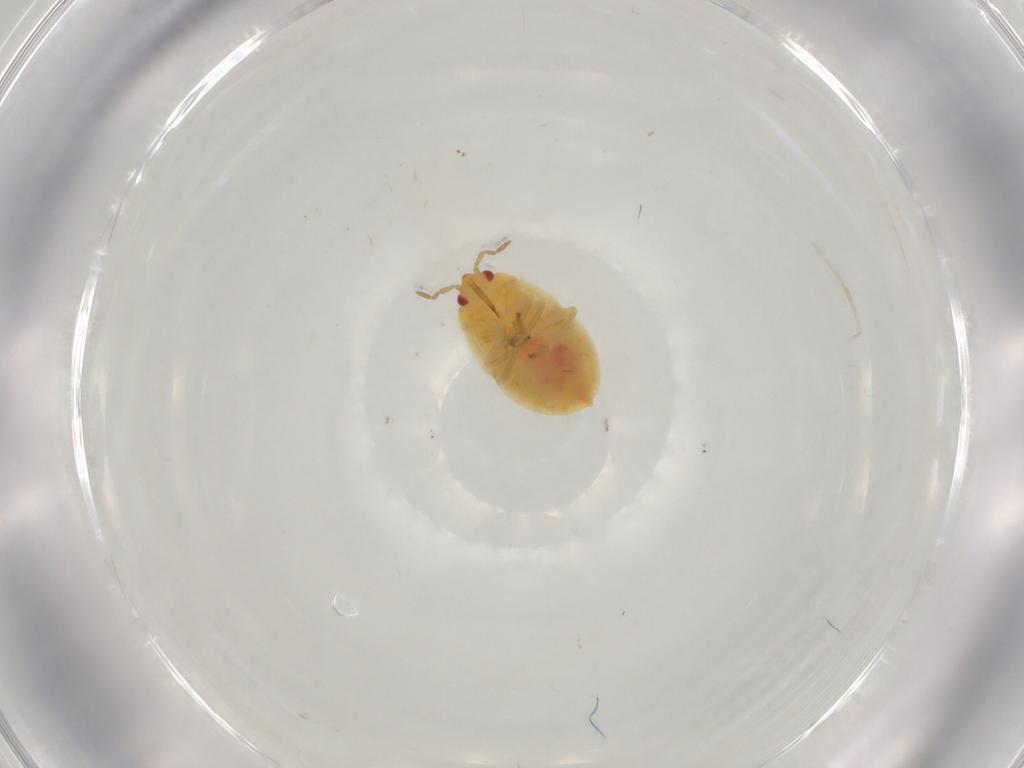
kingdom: Animalia
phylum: Arthropoda
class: Insecta
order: Hemiptera
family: Anthocoridae
